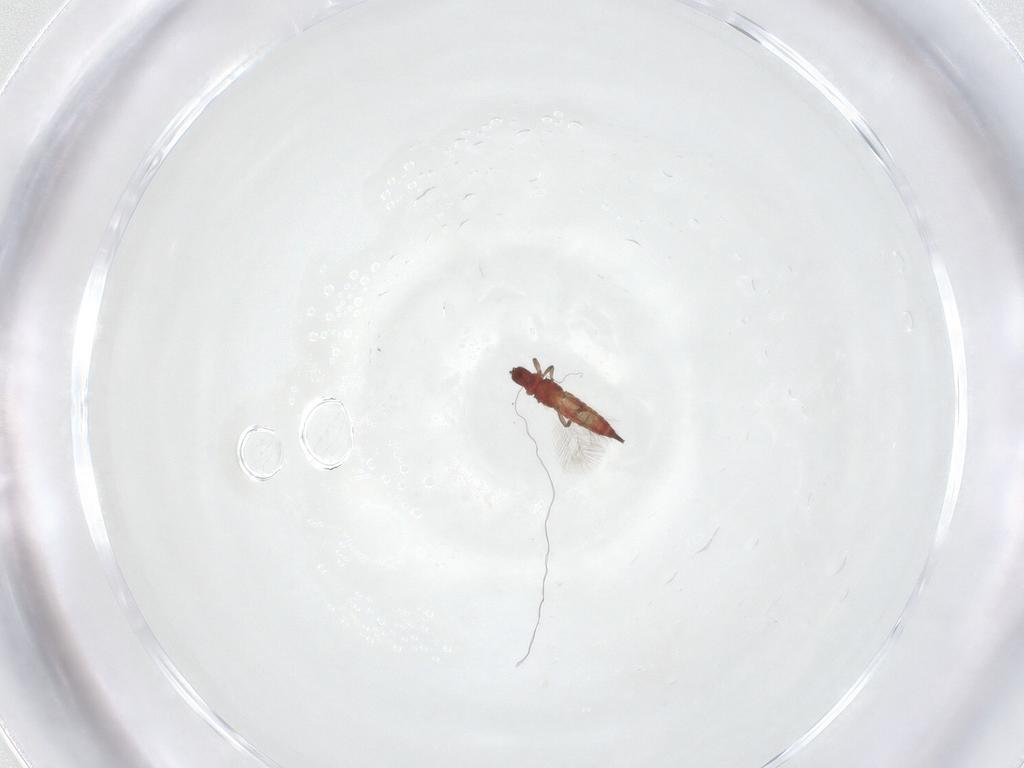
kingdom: Animalia
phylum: Arthropoda
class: Insecta
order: Thysanoptera
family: Phlaeothripidae
